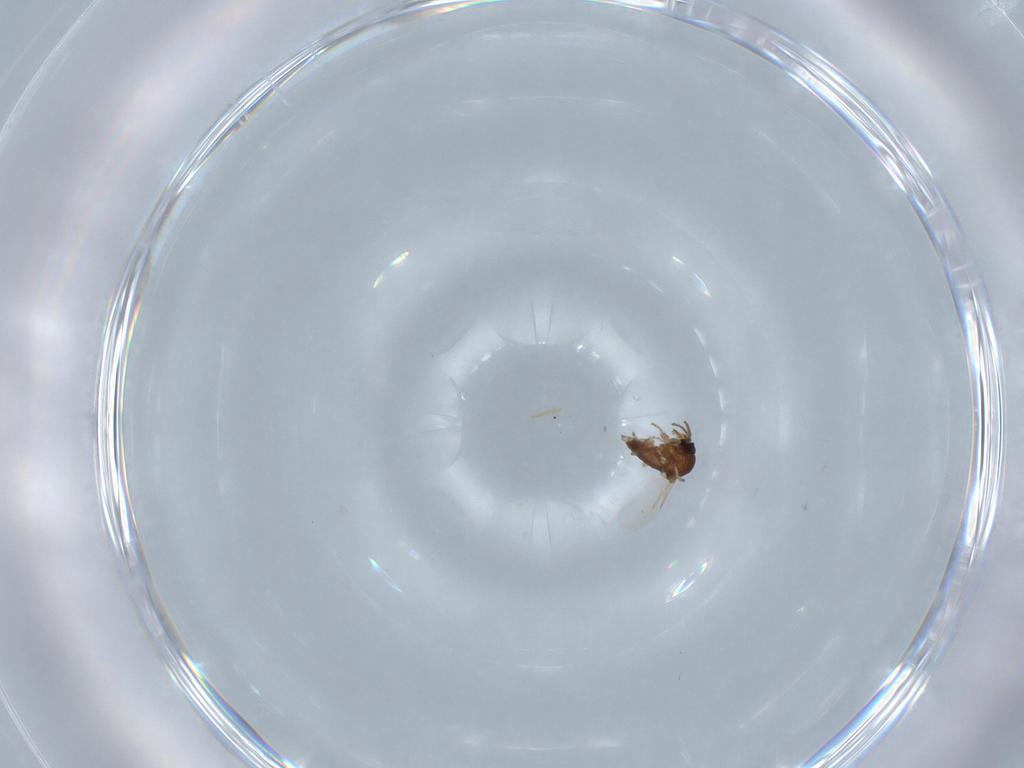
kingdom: Animalia
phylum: Arthropoda
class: Insecta
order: Diptera
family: Ceratopogonidae
